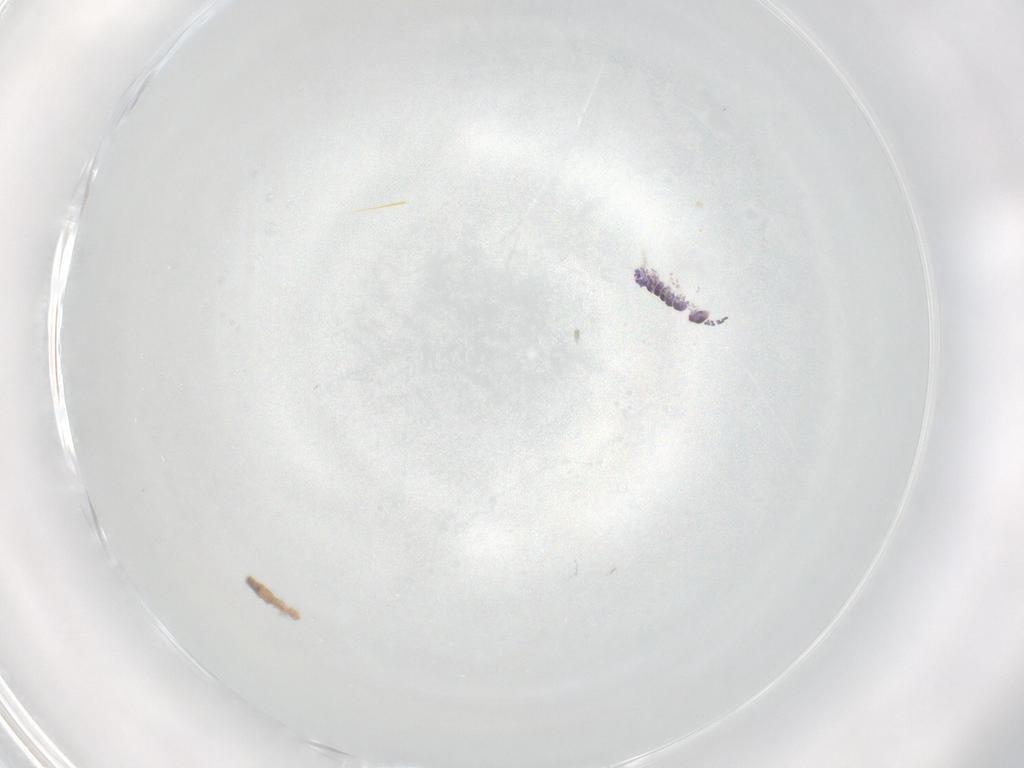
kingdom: Animalia
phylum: Arthropoda
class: Collembola
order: Entomobryomorpha
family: Isotomidae
